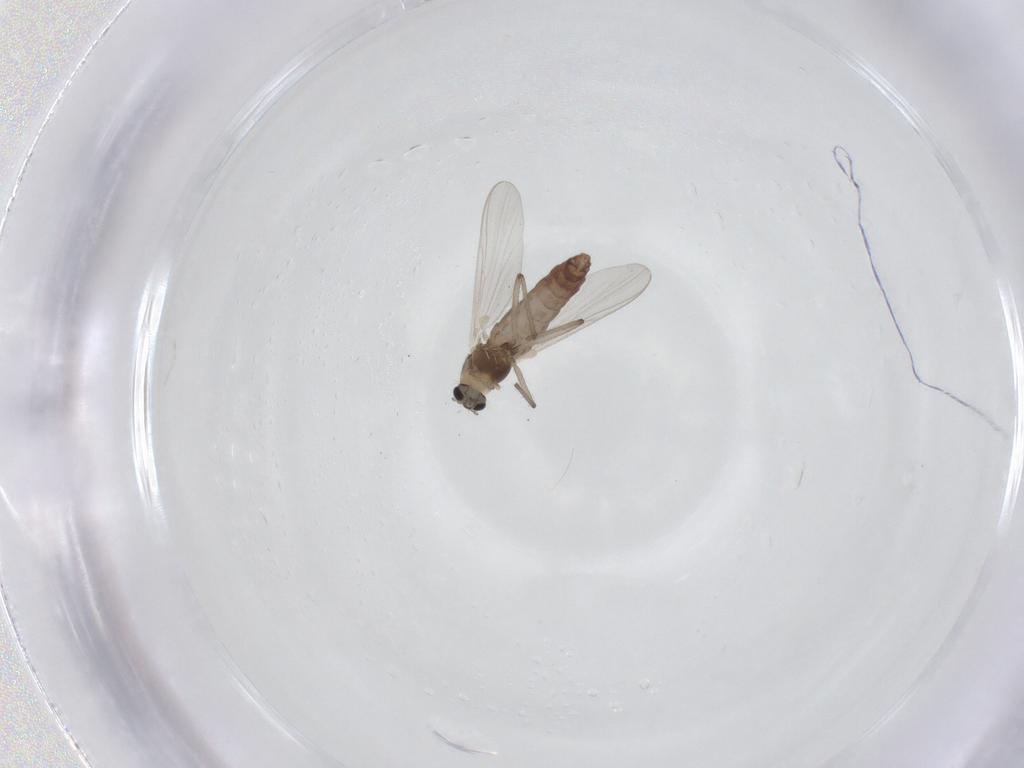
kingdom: Animalia
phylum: Arthropoda
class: Insecta
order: Diptera
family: Chironomidae
